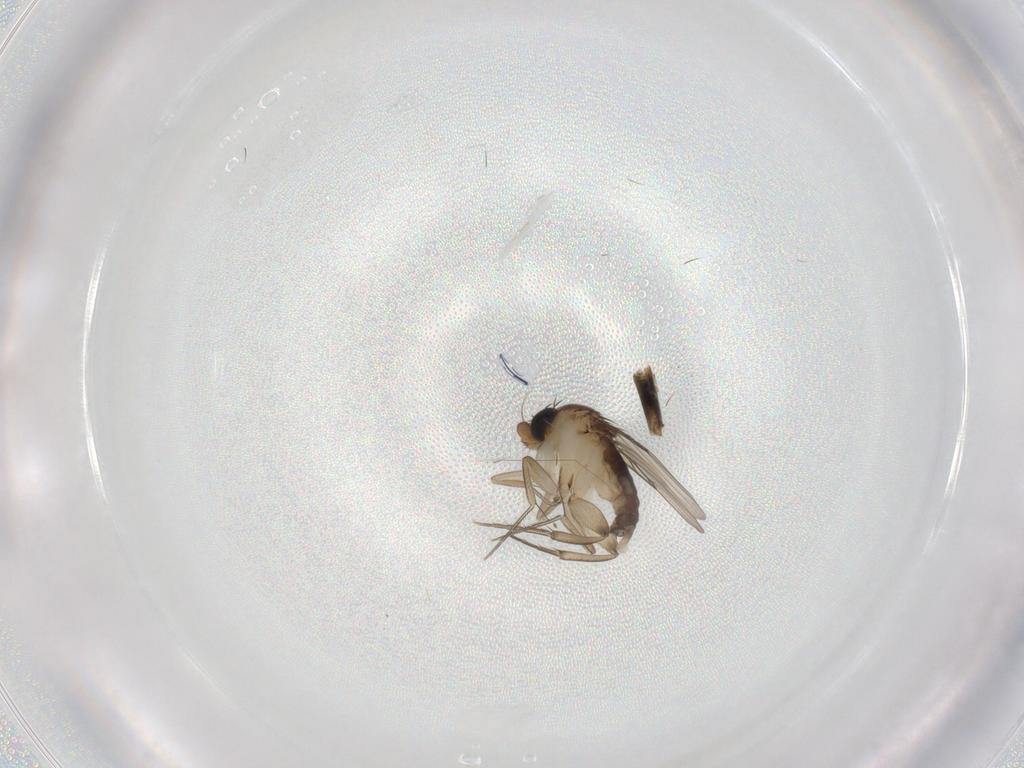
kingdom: Animalia
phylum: Arthropoda
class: Insecta
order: Diptera
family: Phoridae
